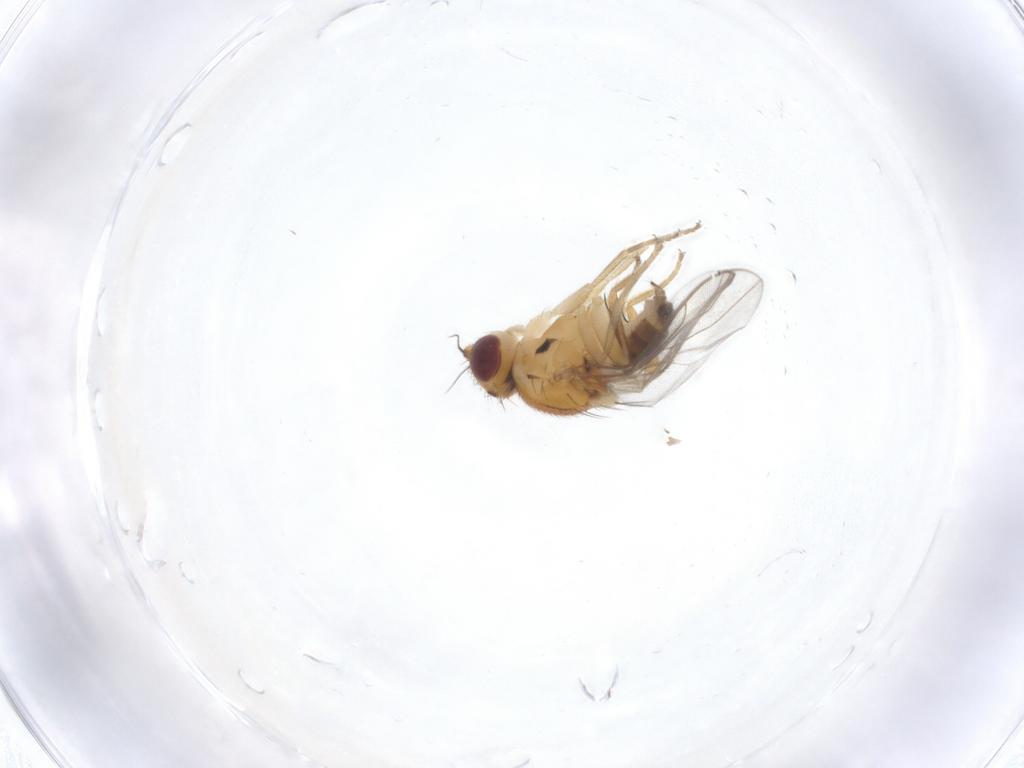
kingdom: Animalia
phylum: Arthropoda
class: Insecta
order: Diptera
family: Chloropidae
